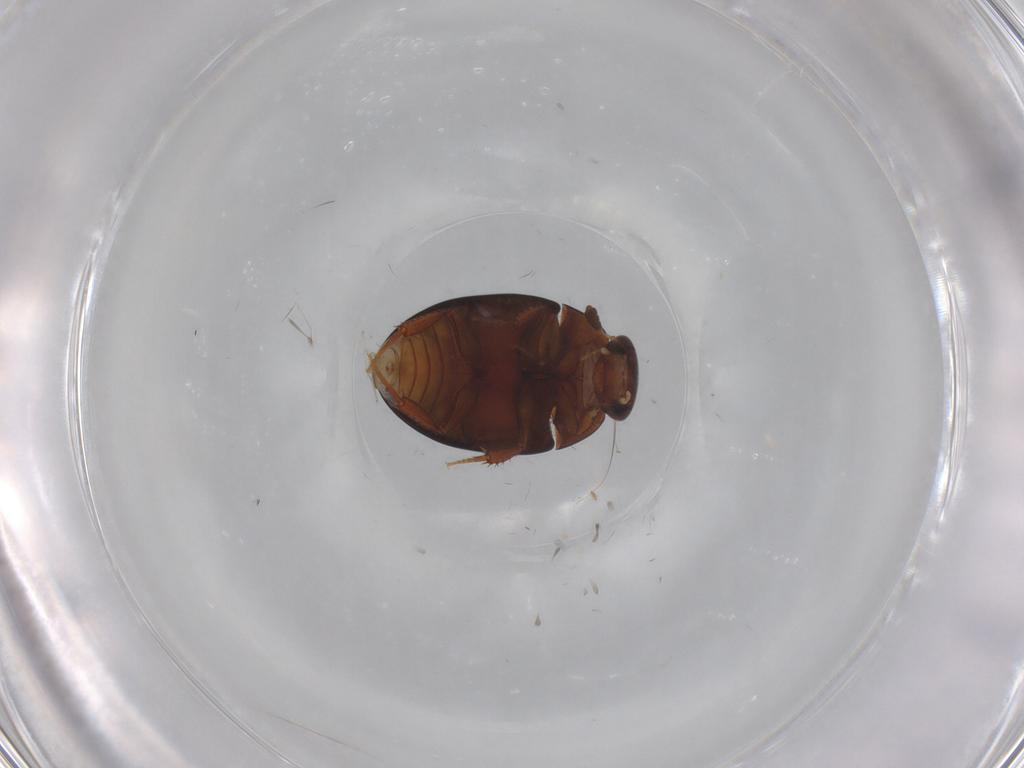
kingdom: Animalia
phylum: Arthropoda
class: Insecta
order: Coleoptera
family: Hydrophilidae
